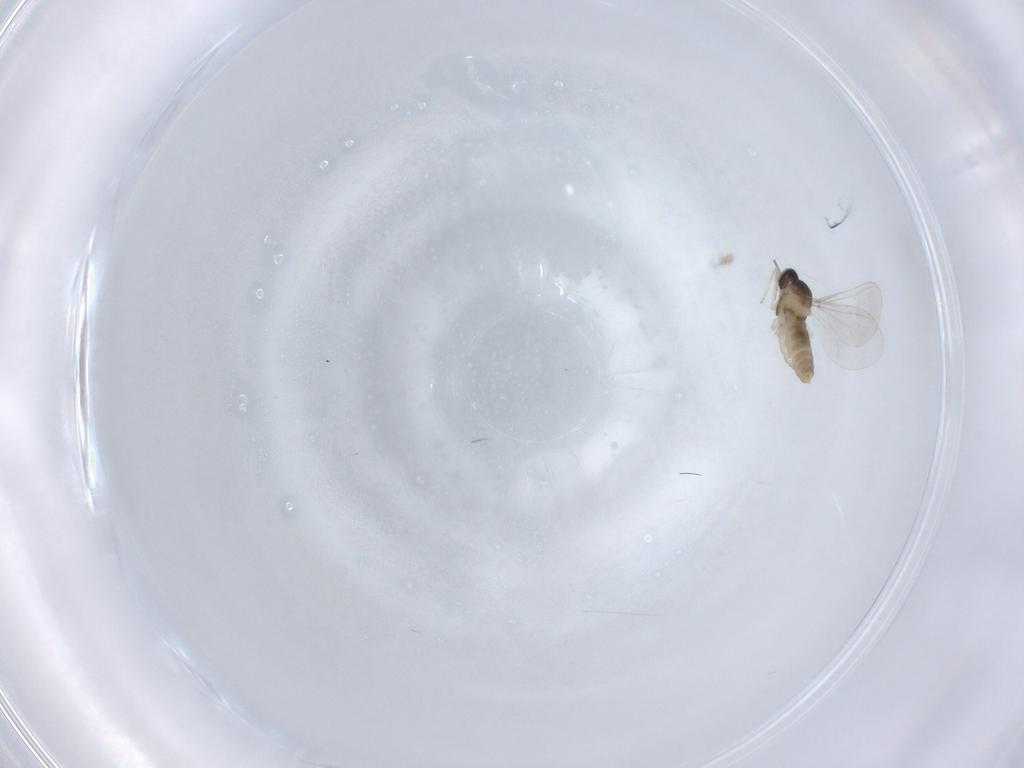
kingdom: Animalia
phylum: Arthropoda
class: Insecta
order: Diptera
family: Cecidomyiidae
